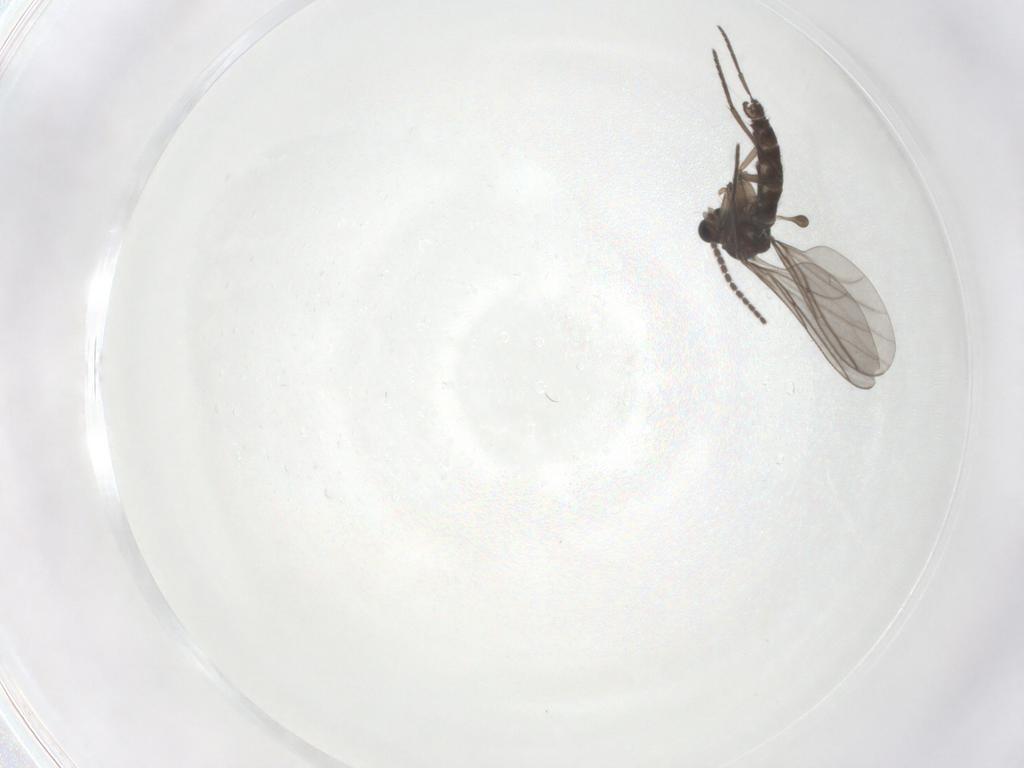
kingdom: Animalia
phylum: Arthropoda
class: Insecta
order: Diptera
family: Sciaridae
